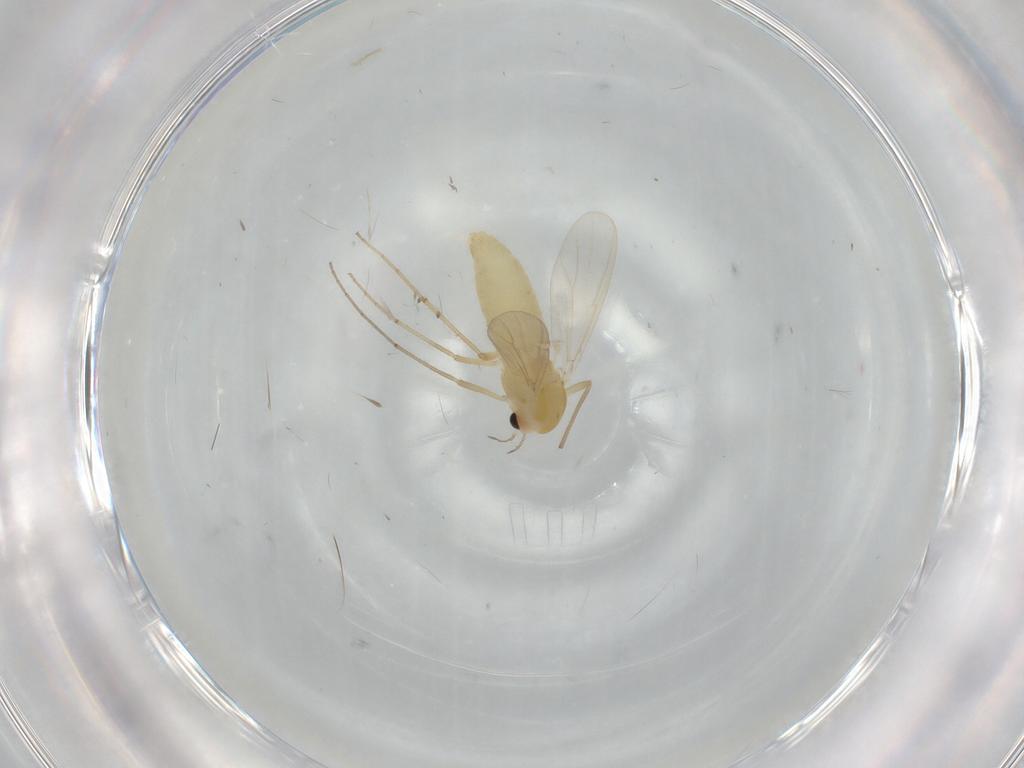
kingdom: Animalia
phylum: Arthropoda
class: Insecta
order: Diptera
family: Chironomidae
